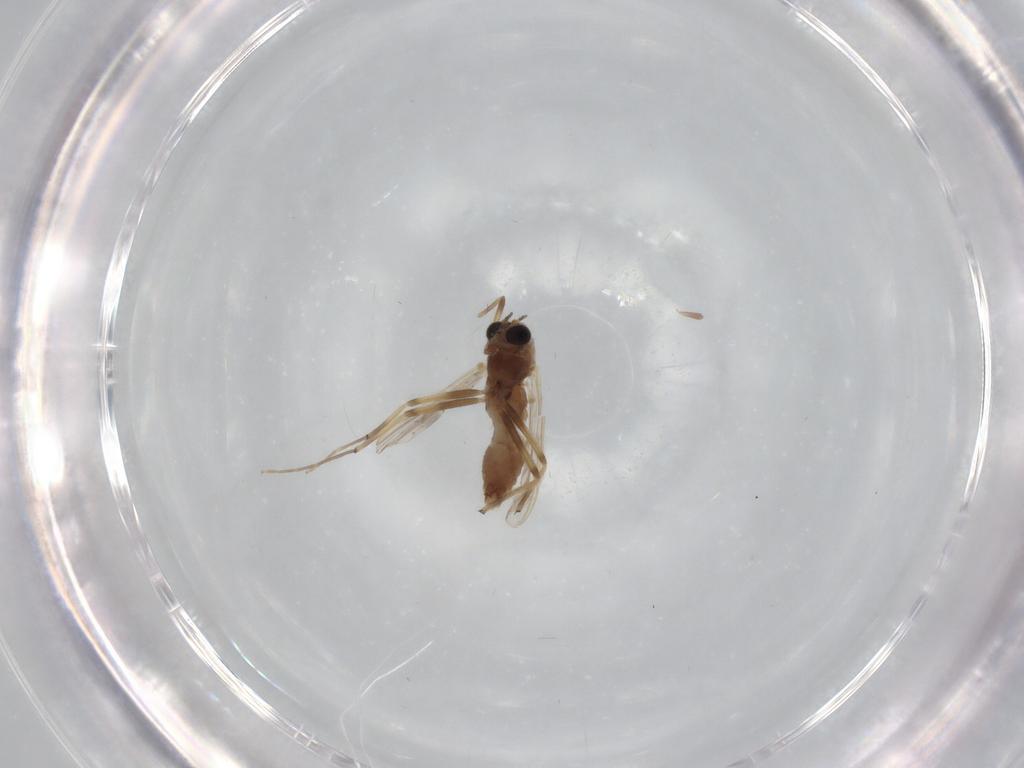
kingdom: Animalia
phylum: Arthropoda
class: Insecta
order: Diptera
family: Chironomidae
